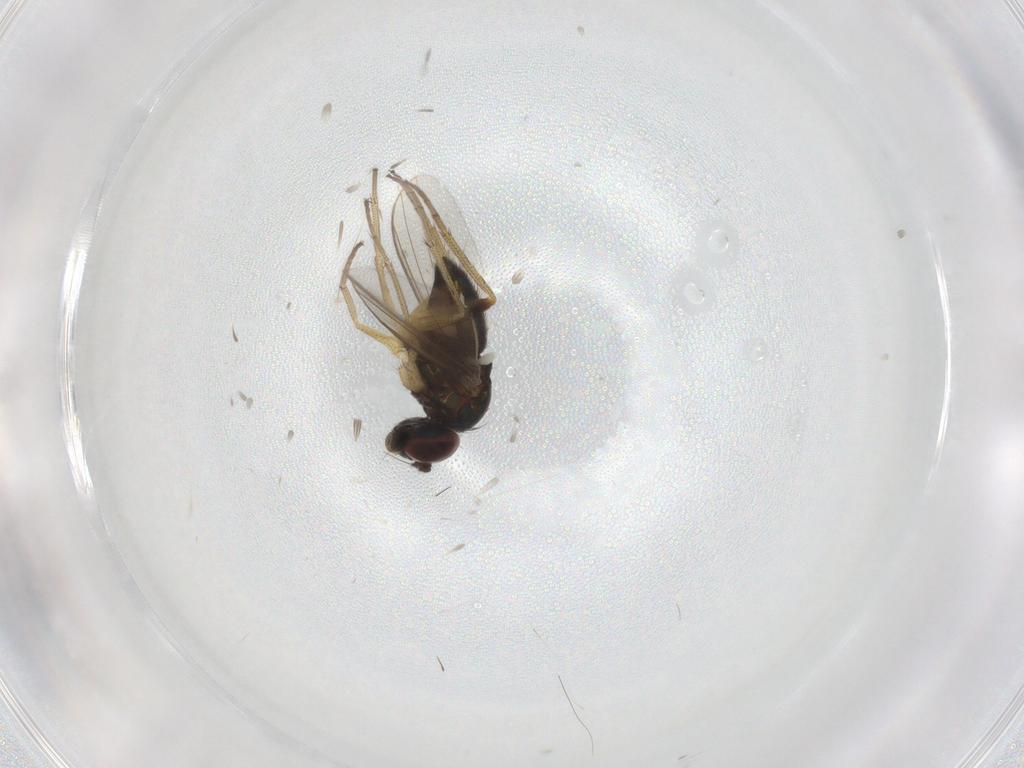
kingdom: Animalia
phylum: Arthropoda
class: Insecta
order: Diptera
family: Dolichopodidae
